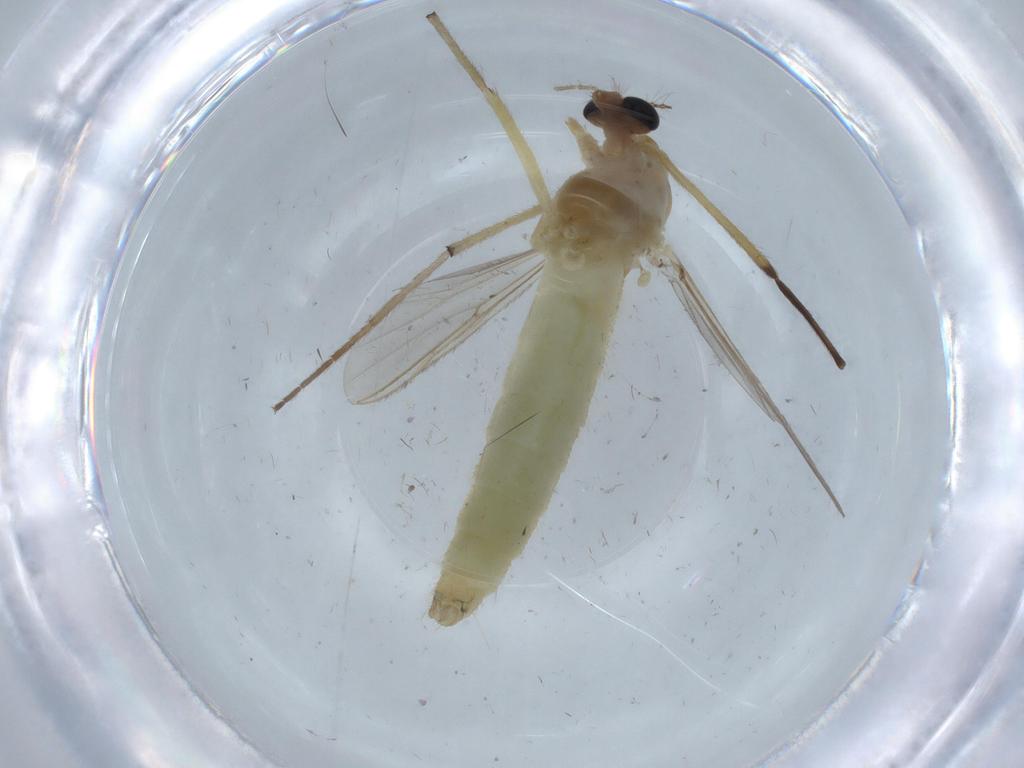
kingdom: Animalia
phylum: Arthropoda
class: Insecta
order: Diptera
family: Chironomidae
